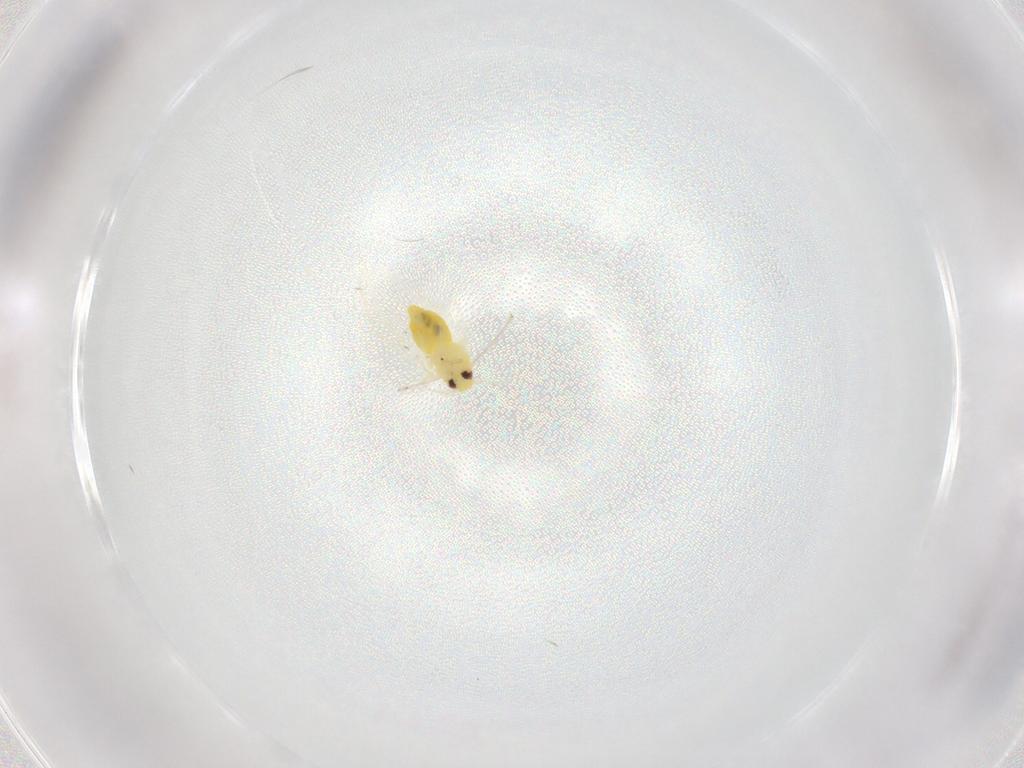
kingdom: Animalia
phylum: Arthropoda
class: Insecta
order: Hemiptera
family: Aleyrodidae
